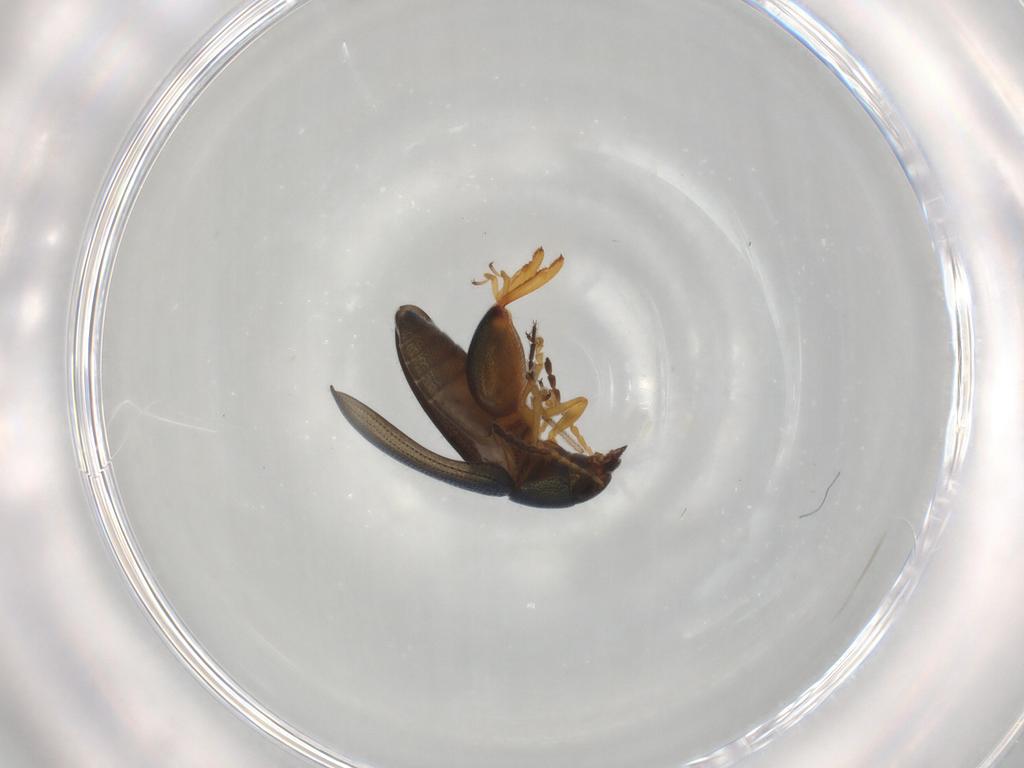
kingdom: Animalia
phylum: Arthropoda
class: Insecta
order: Coleoptera
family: Chrysomelidae
